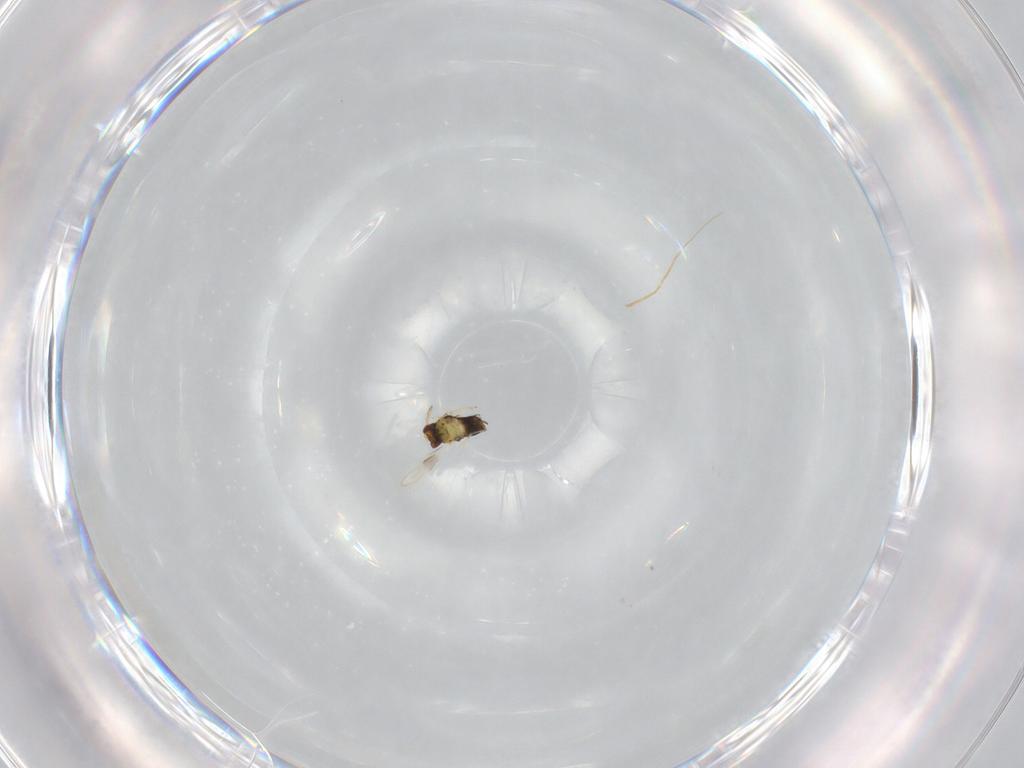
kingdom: Animalia
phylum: Arthropoda
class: Insecta
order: Hymenoptera
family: Aphelinidae
